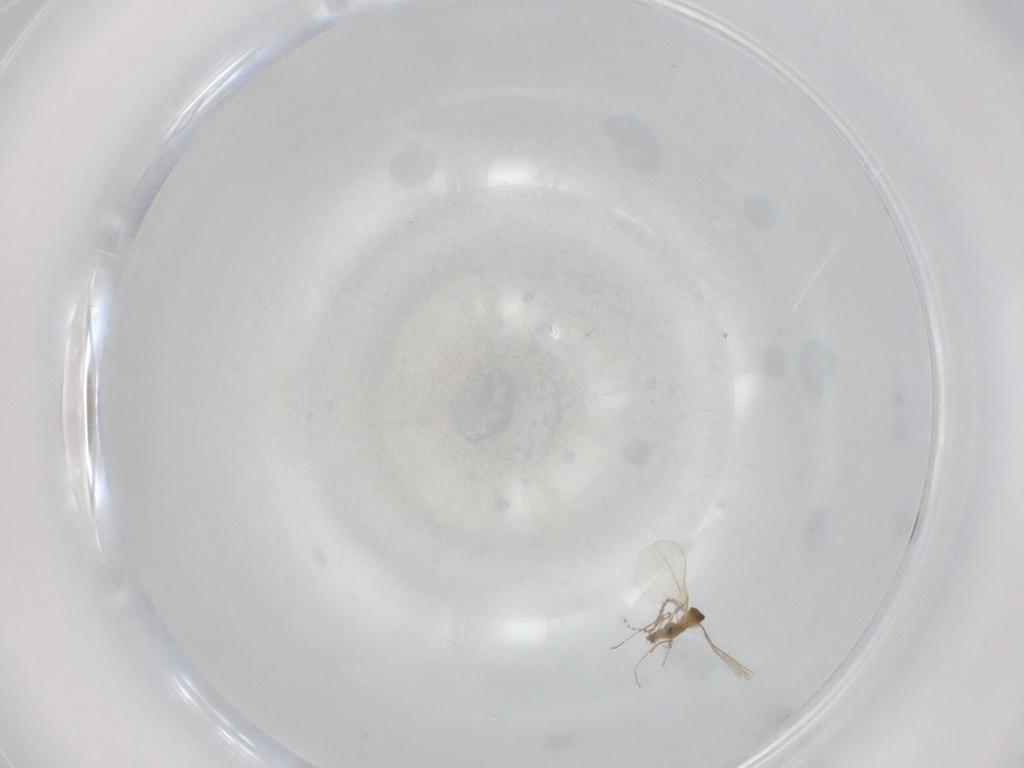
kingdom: Animalia
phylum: Arthropoda
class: Insecta
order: Diptera
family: Cecidomyiidae
